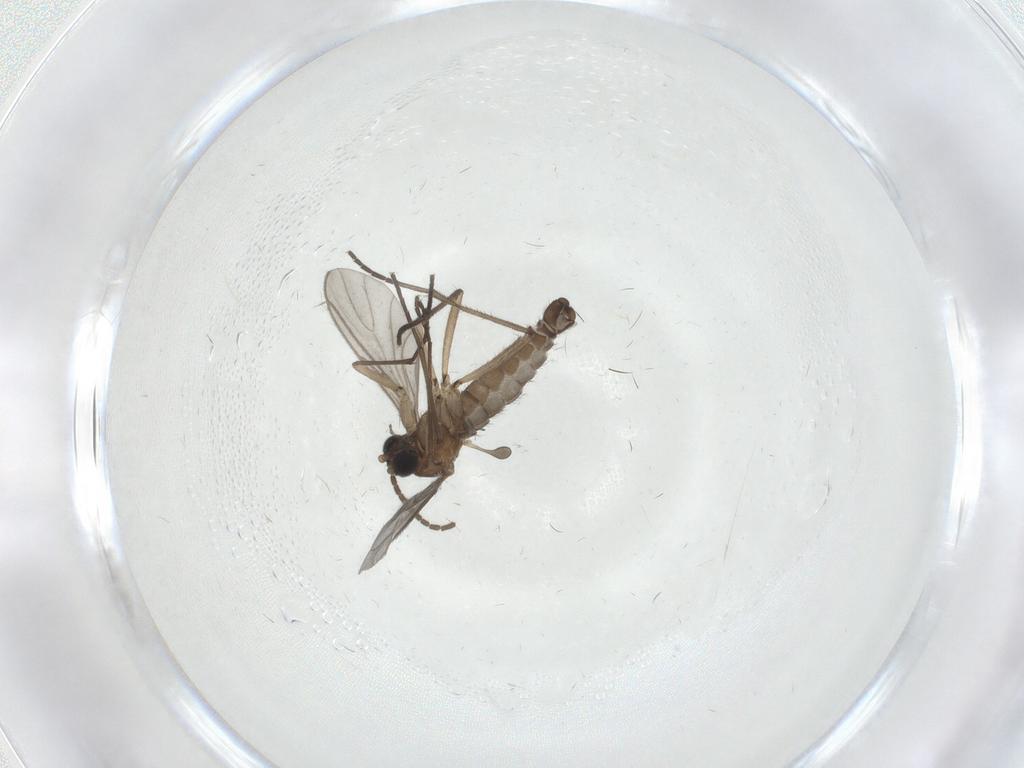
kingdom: Animalia
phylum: Arthropoda
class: Insecta
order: Diptera
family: Sciaridae
